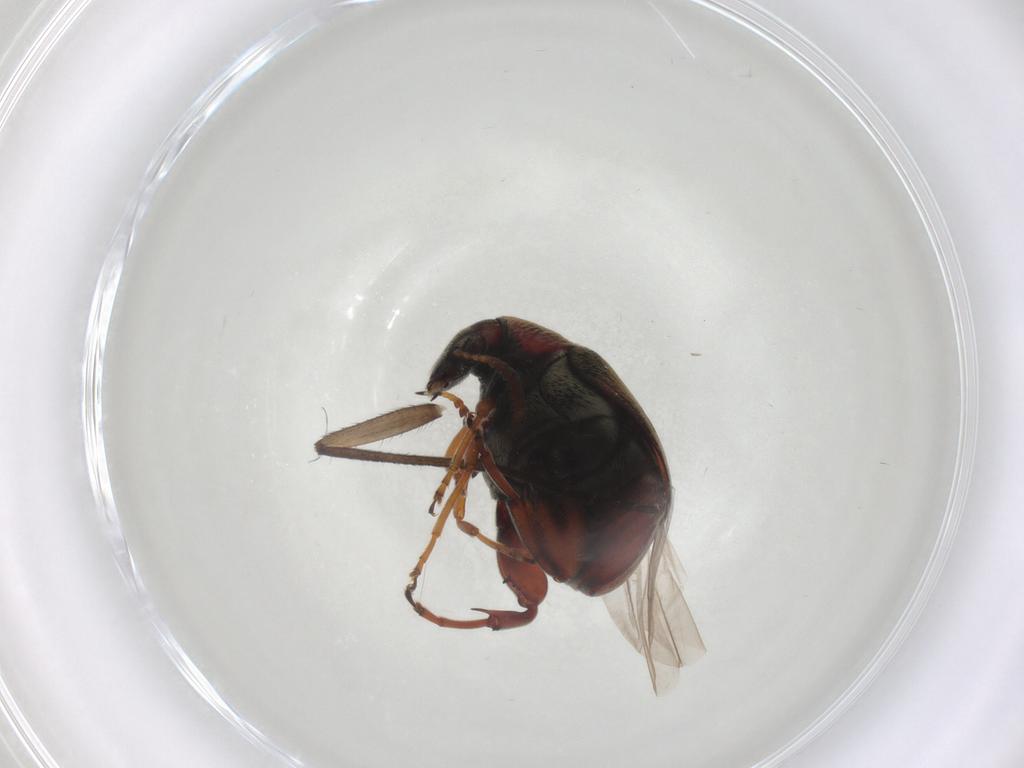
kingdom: Animalia
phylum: Arthropoda
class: Insecta
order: Coleoptera
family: Chrysomelidae
